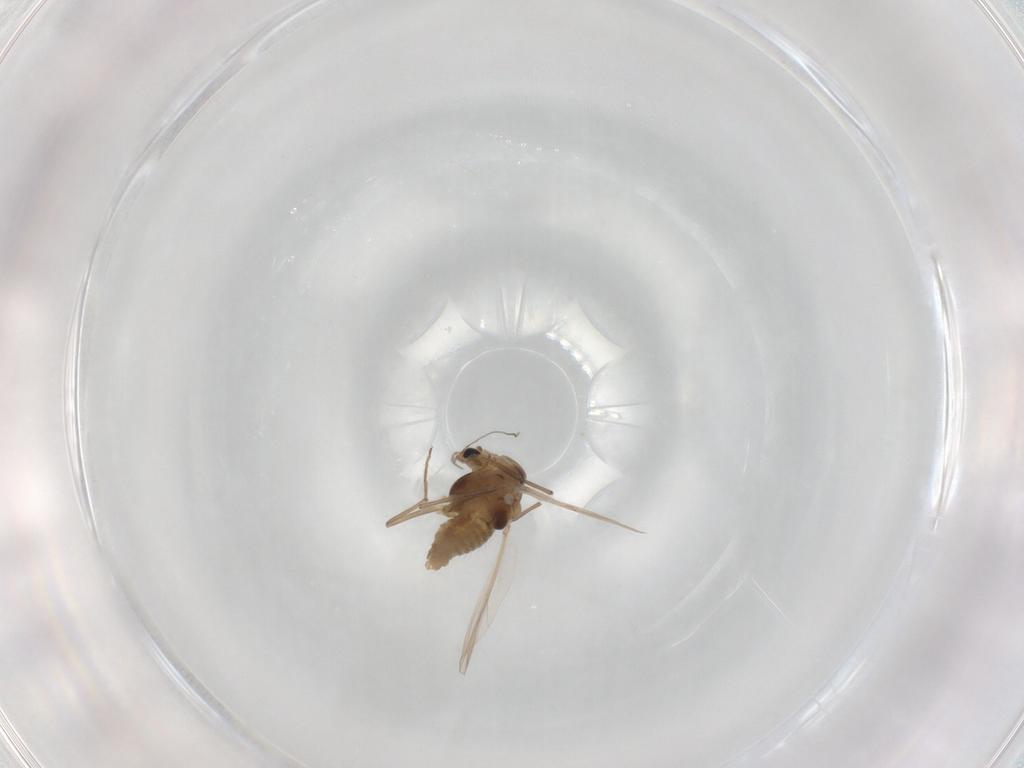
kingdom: Animalia
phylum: Arthropoda
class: Insecta
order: Diptera
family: Chironomidae
